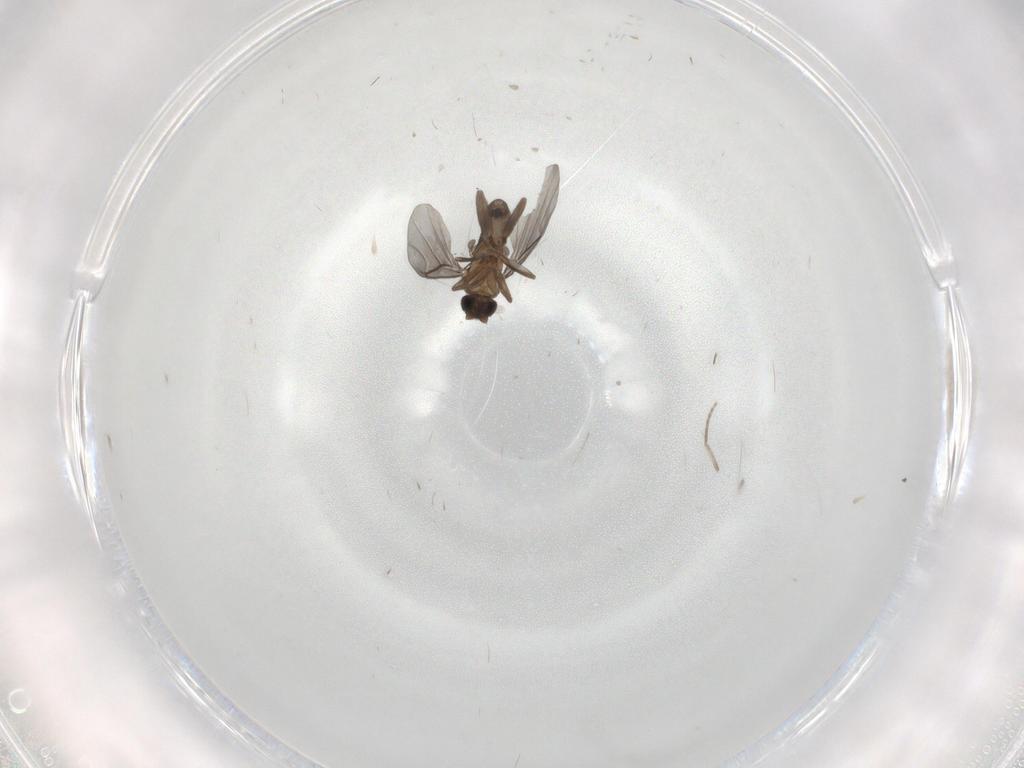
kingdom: Animalia
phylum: Arthropoda
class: Insecta
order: Diptera
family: Phoridae
